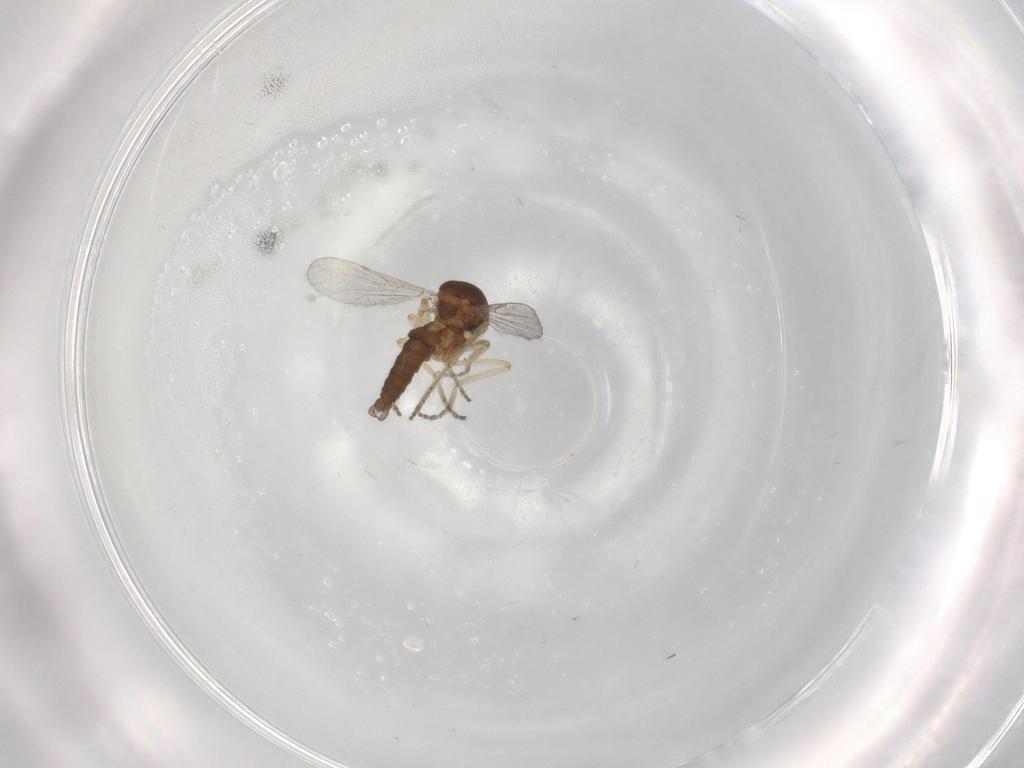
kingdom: Animalia
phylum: Arthropoda
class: Insecta
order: Diptera
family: Ceratopogonidae
